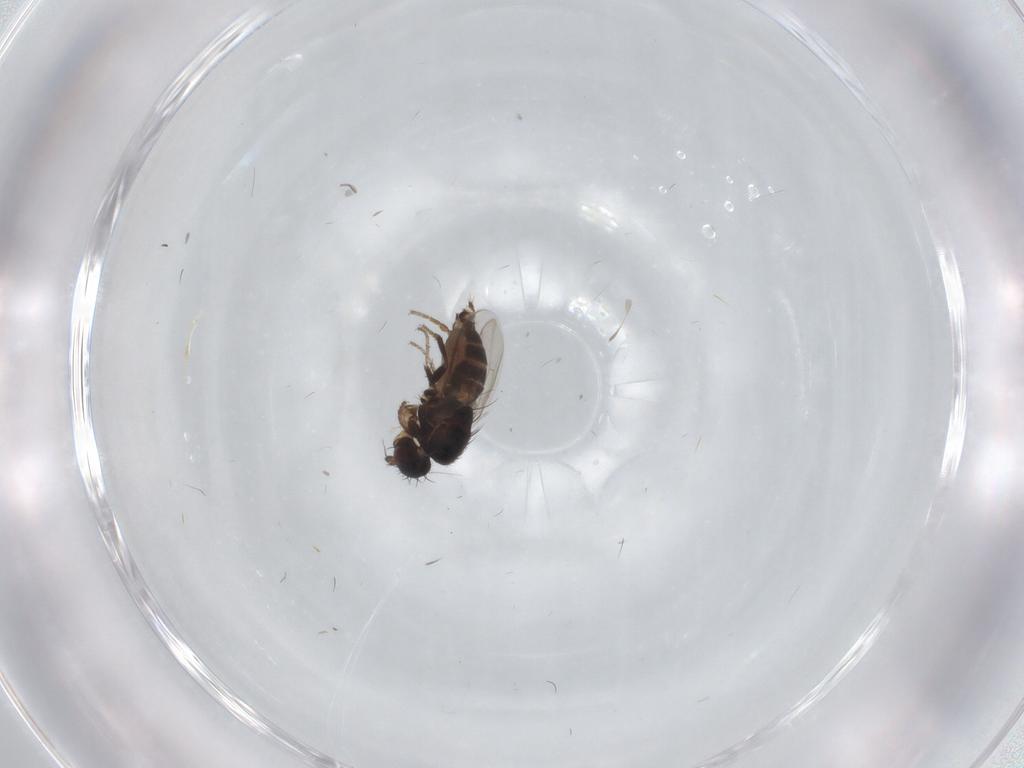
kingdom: Animalia
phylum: Arthropoda
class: Insecta
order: Diptera
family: Sphaeroceridae
